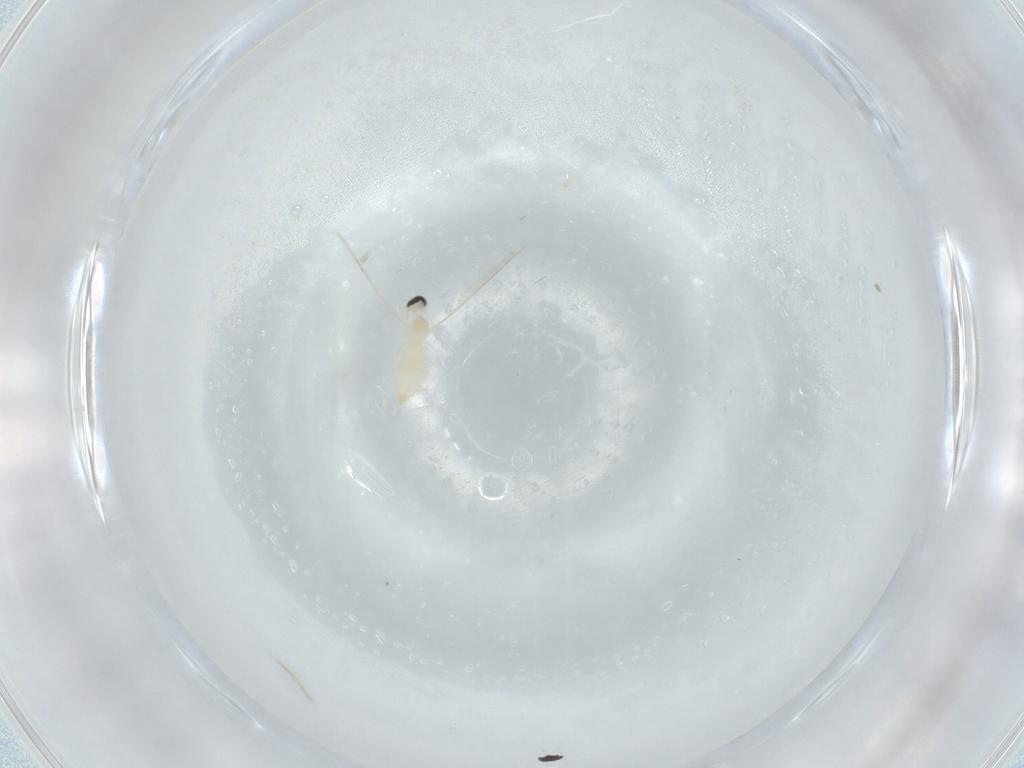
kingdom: Animalia
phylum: Arthropoda
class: Insecta
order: Diptera
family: Cecidomyiidae
